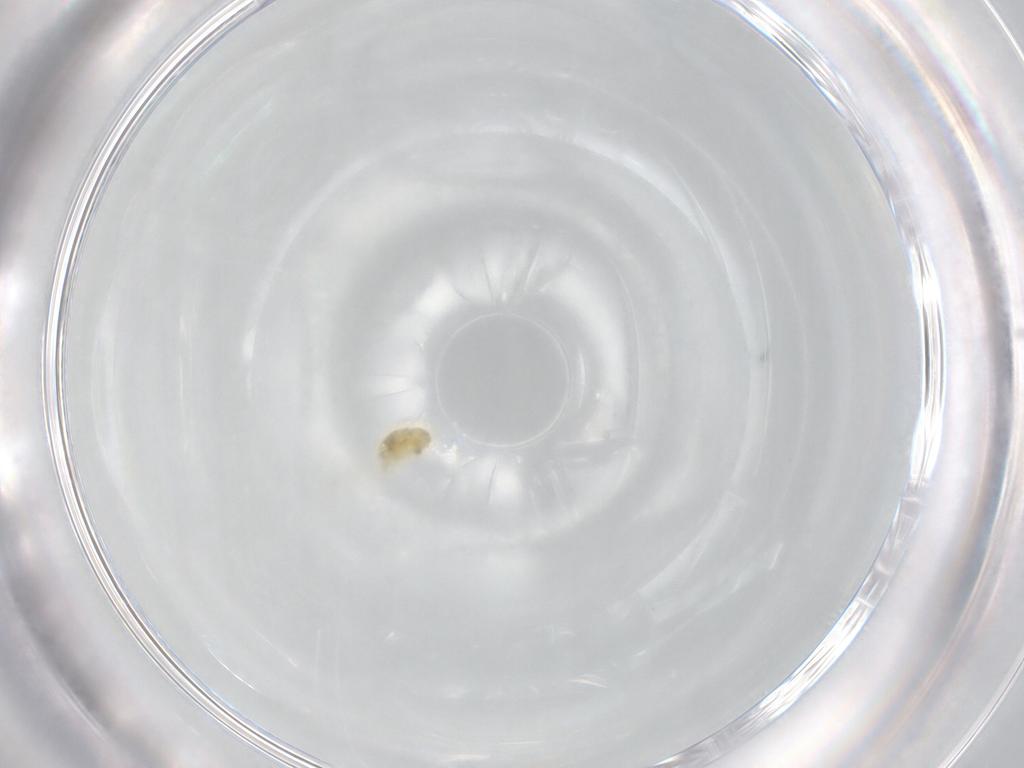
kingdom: Animalia
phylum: Arthropoda
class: Arachnida
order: Trombidiformes
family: Eupodidae
